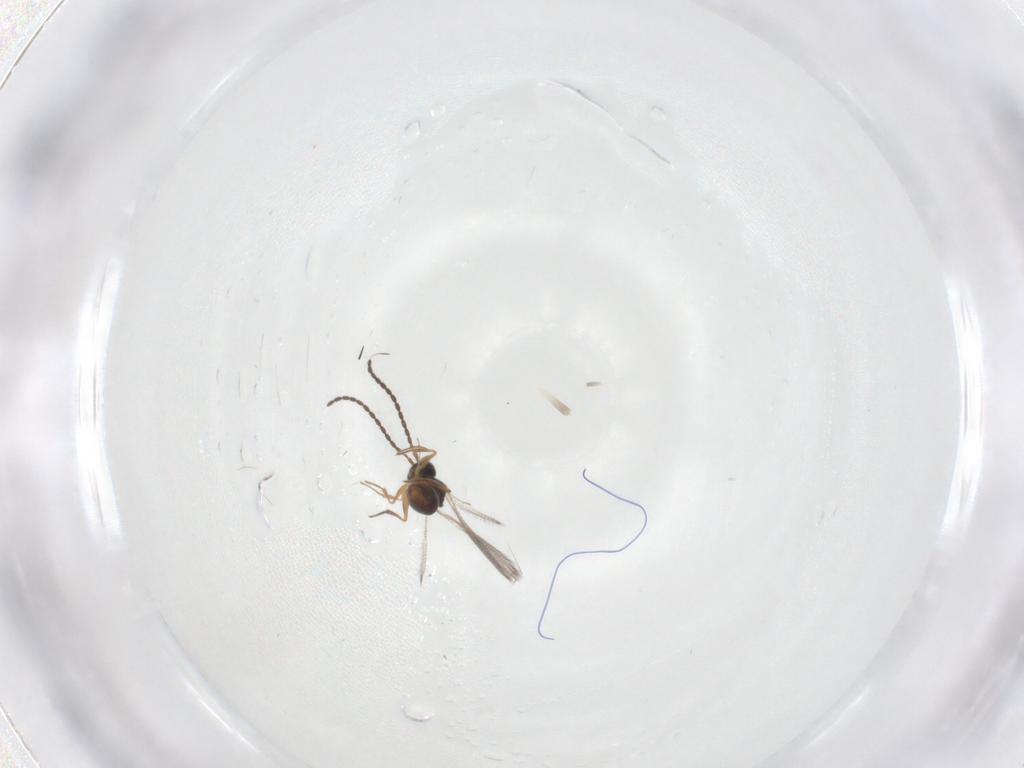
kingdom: Animalia
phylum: Arthropoda
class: Insecta
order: Hymenoptera
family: Figitidae
